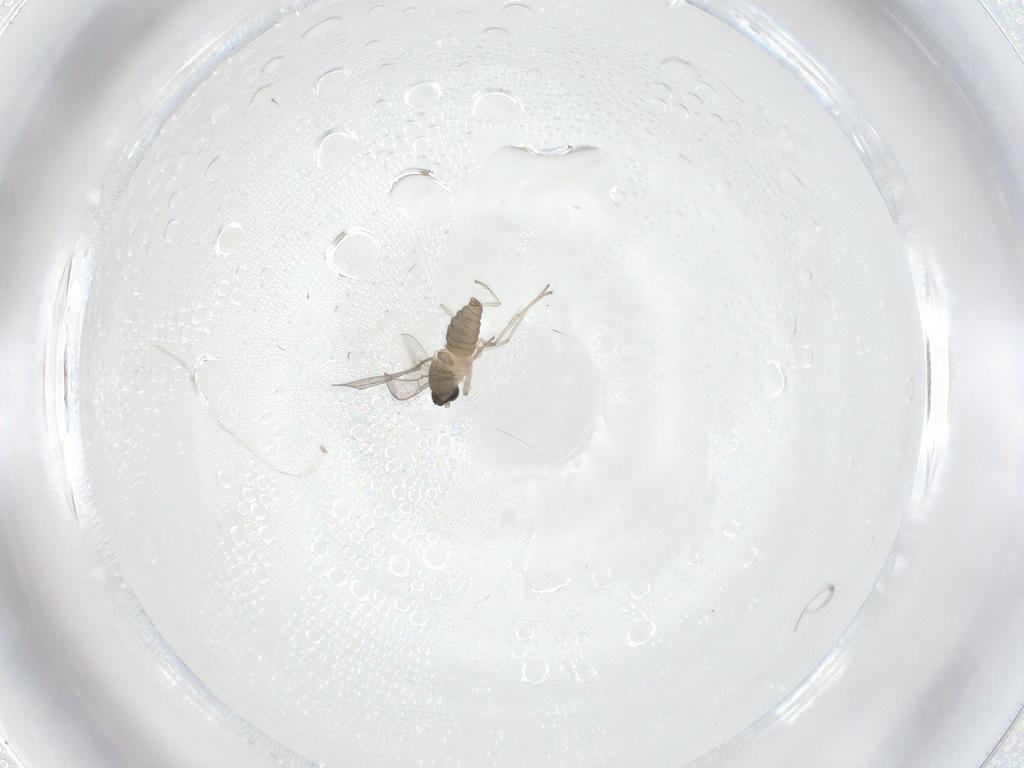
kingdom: Animalia
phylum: Arthropoda
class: Insecta
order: Diptera
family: Cecidomyiidae
